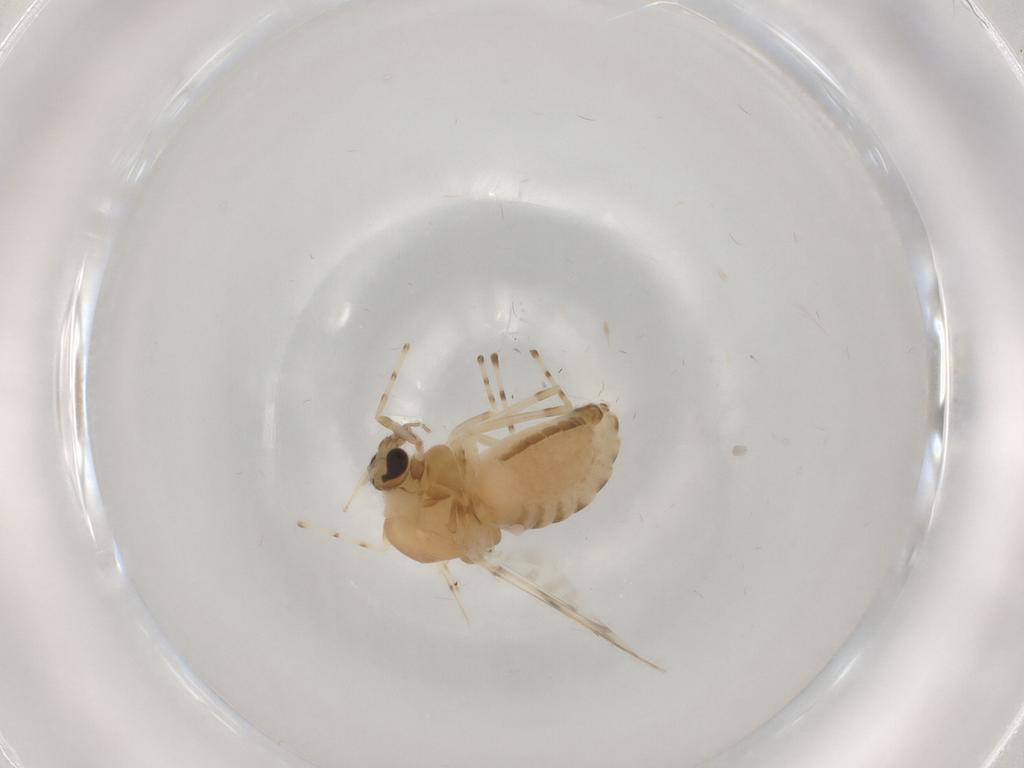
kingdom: Animalia
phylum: Arthropoda
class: Insecta
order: Diptera
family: Chironomidae
